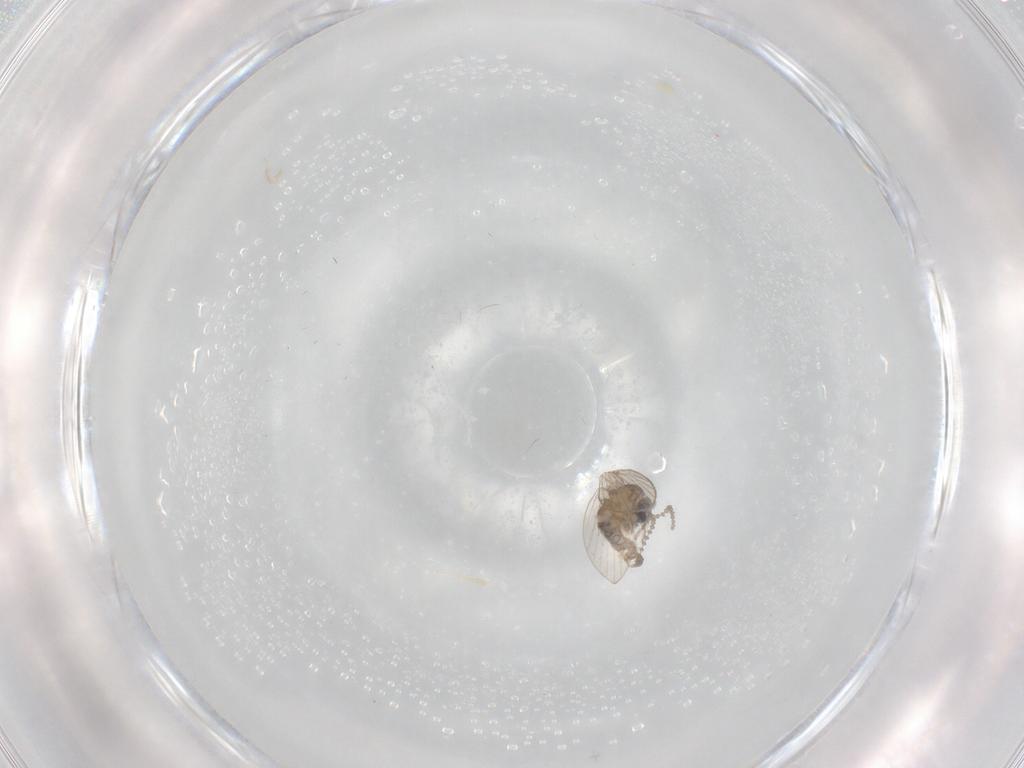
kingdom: Animalia
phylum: Arthropoda
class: Insecta
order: Diptera
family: Psychodidae
